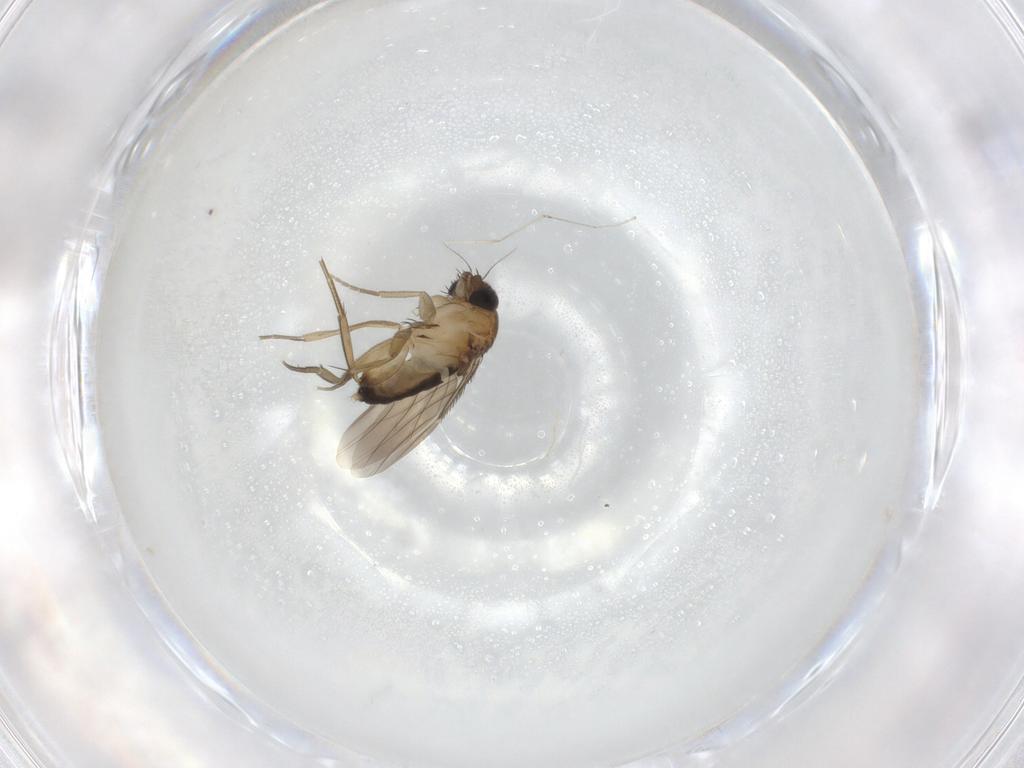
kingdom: Animalia
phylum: Arthropoda
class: Insecta
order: Diptera
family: Phoridae
